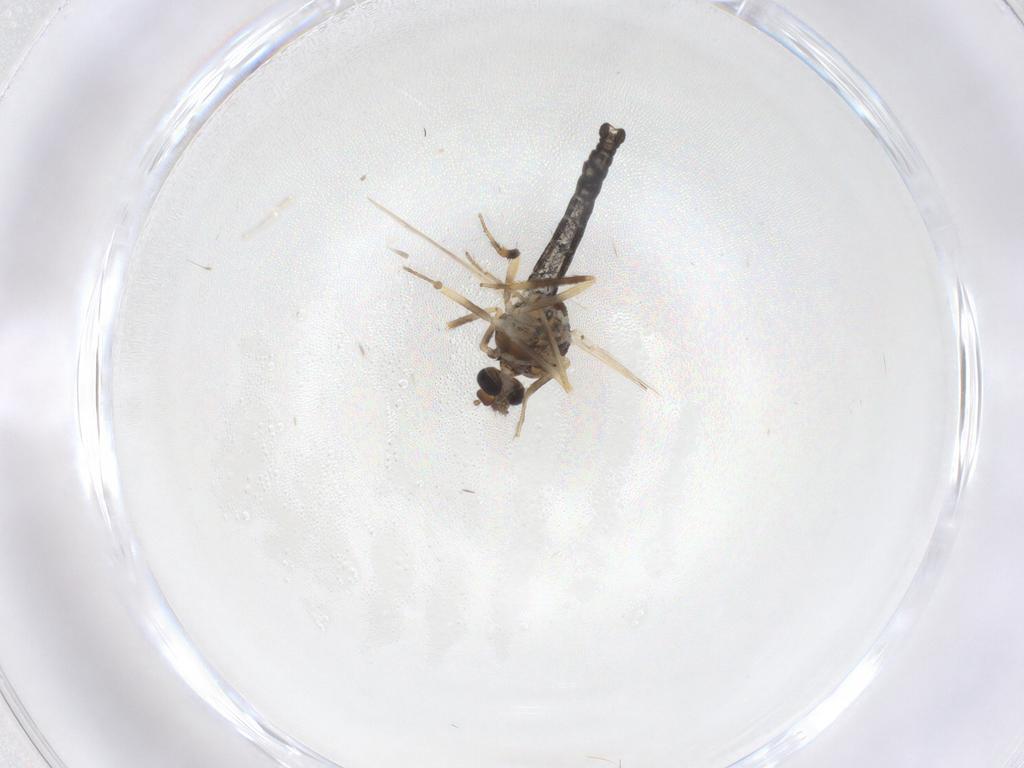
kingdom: Animalia
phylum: Arthropoda
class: Insecta
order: Diptera
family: Ceratopogonidae
